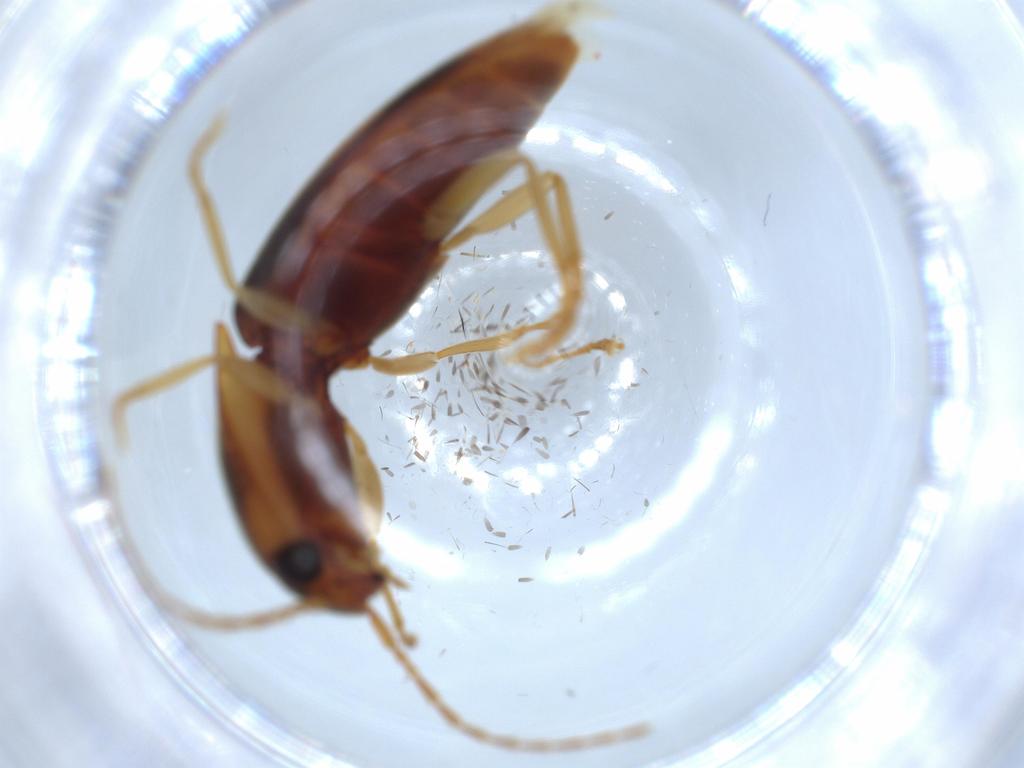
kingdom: Animalia
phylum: Arthropoda
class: Insecta
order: Coleoptera
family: Elateridae
